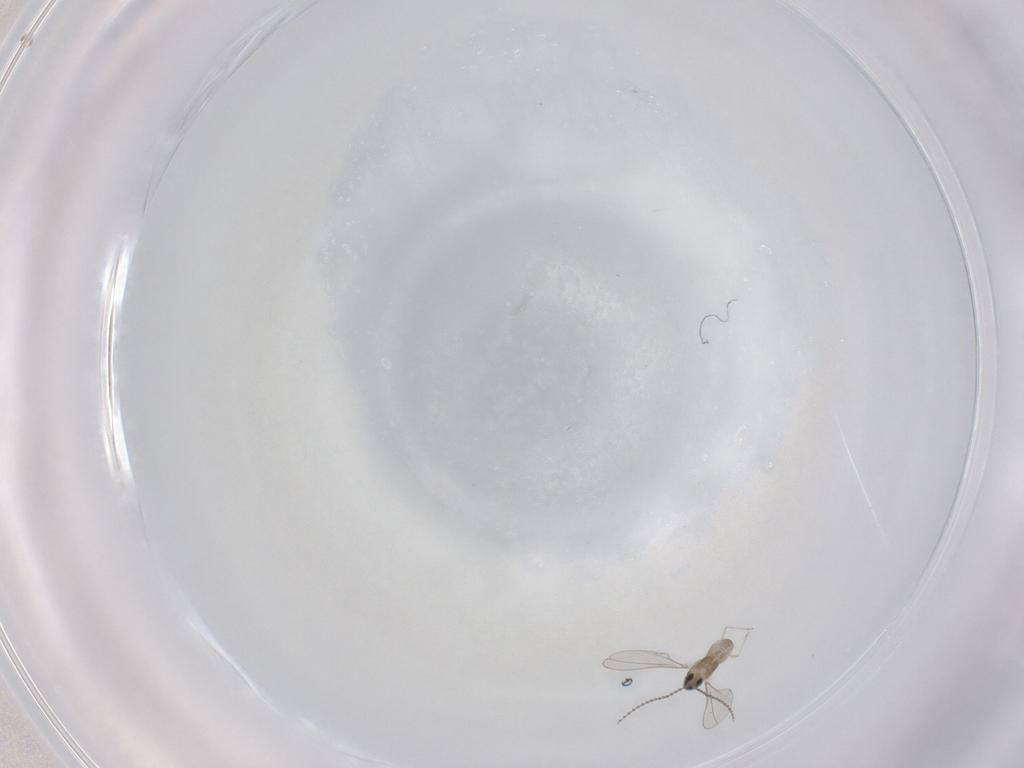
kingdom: Animalia
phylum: Arthropoda
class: Insecta
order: Diptera
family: Cecidomyiidae
